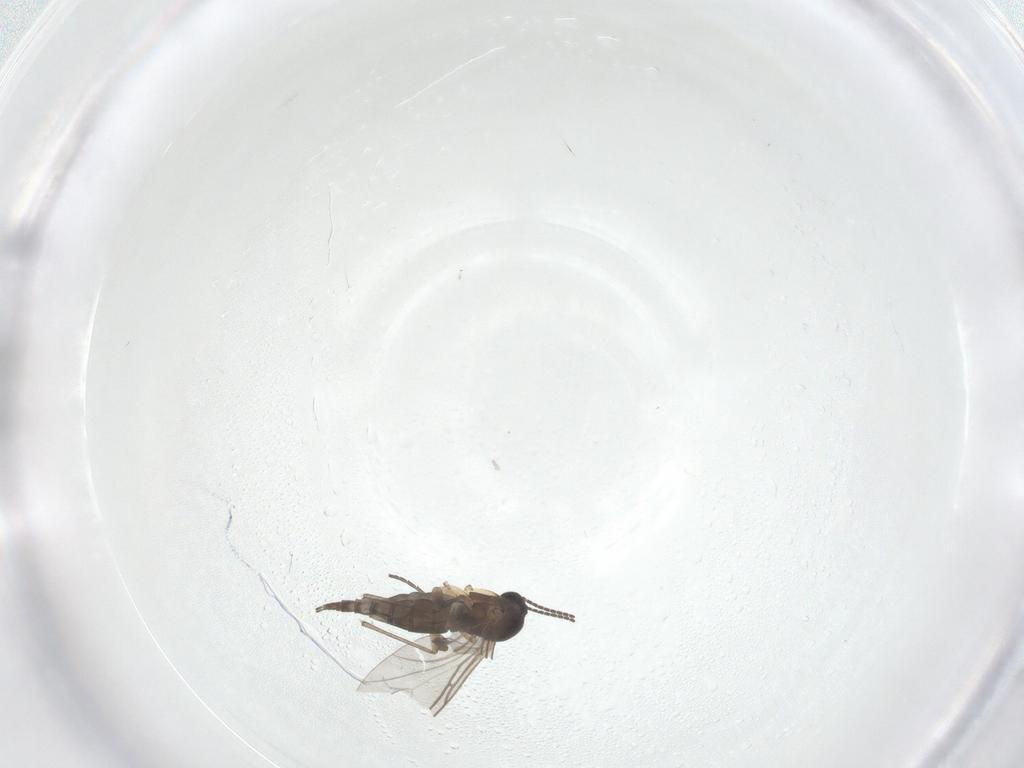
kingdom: Animalia
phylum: Arthropoda
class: Insecta
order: Diptera
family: Sciaridae
